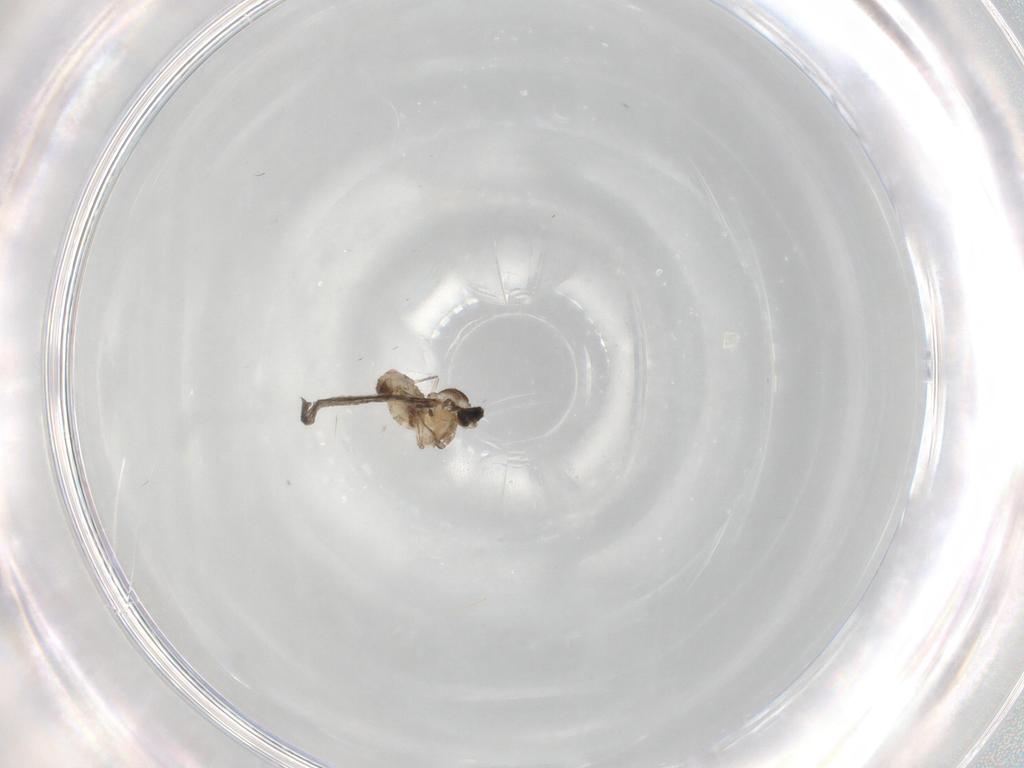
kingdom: Animalia
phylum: Arthropoda
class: Insecta
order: Diptera
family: Cecidomyiidae
